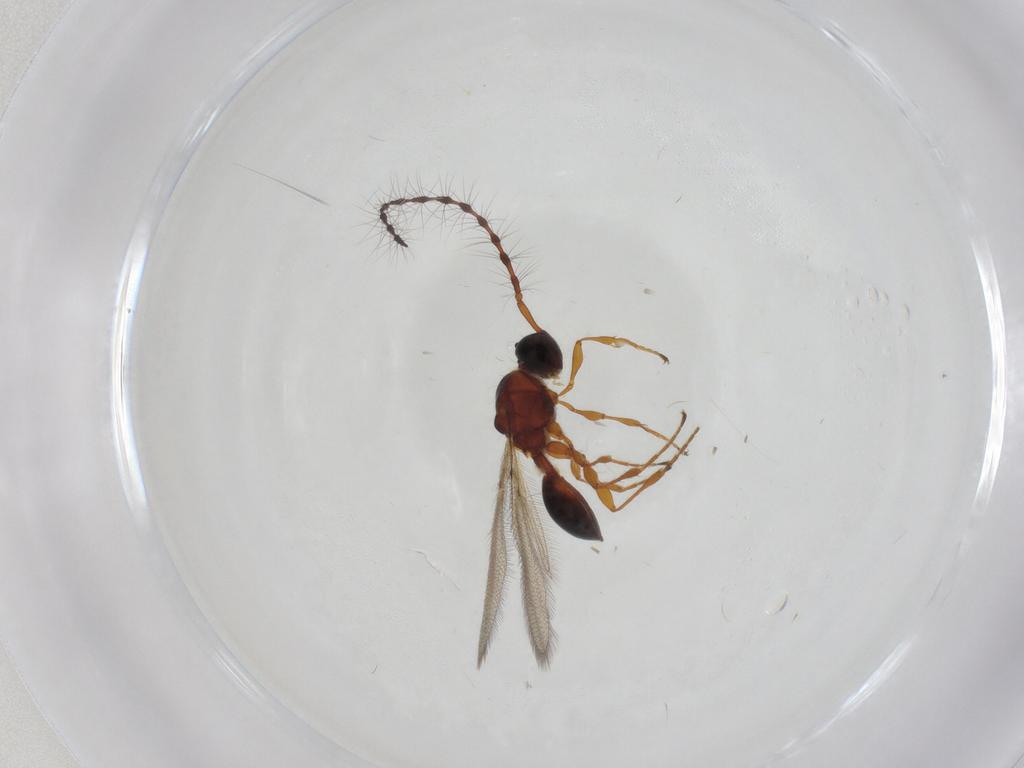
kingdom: Animalia
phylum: Arthropoda
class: Insecta
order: Hymenoptera
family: Diapriidae
